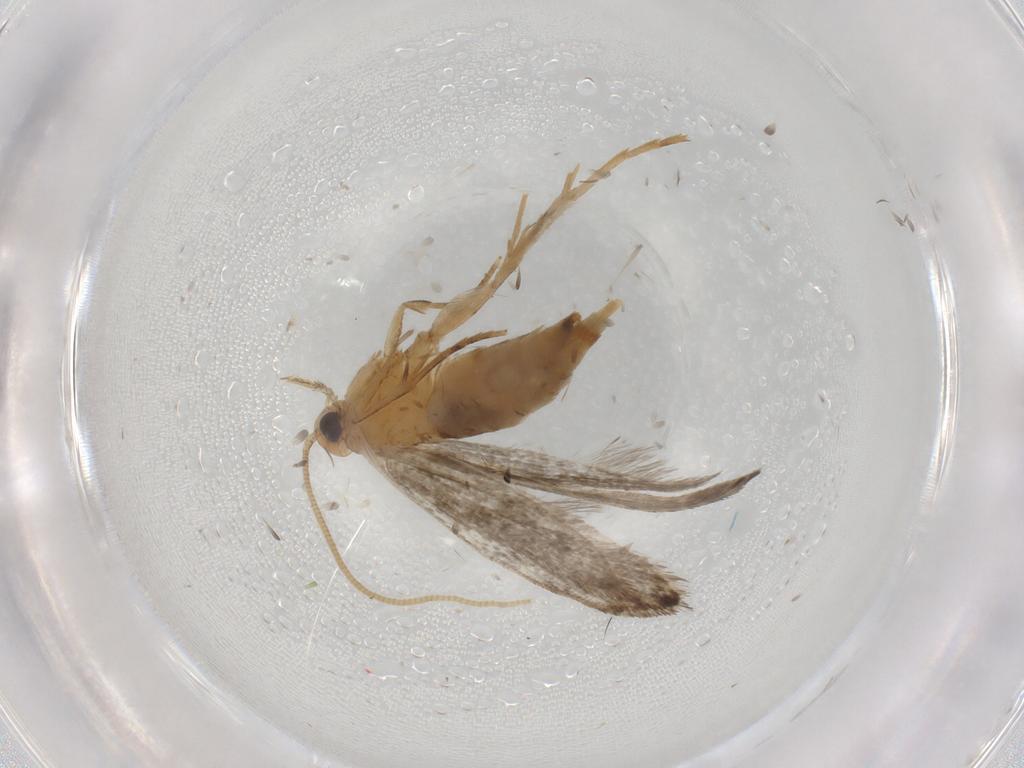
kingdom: Animalia
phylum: Arthropoda
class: Insecta
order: Lepidoptera
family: Tineidae
